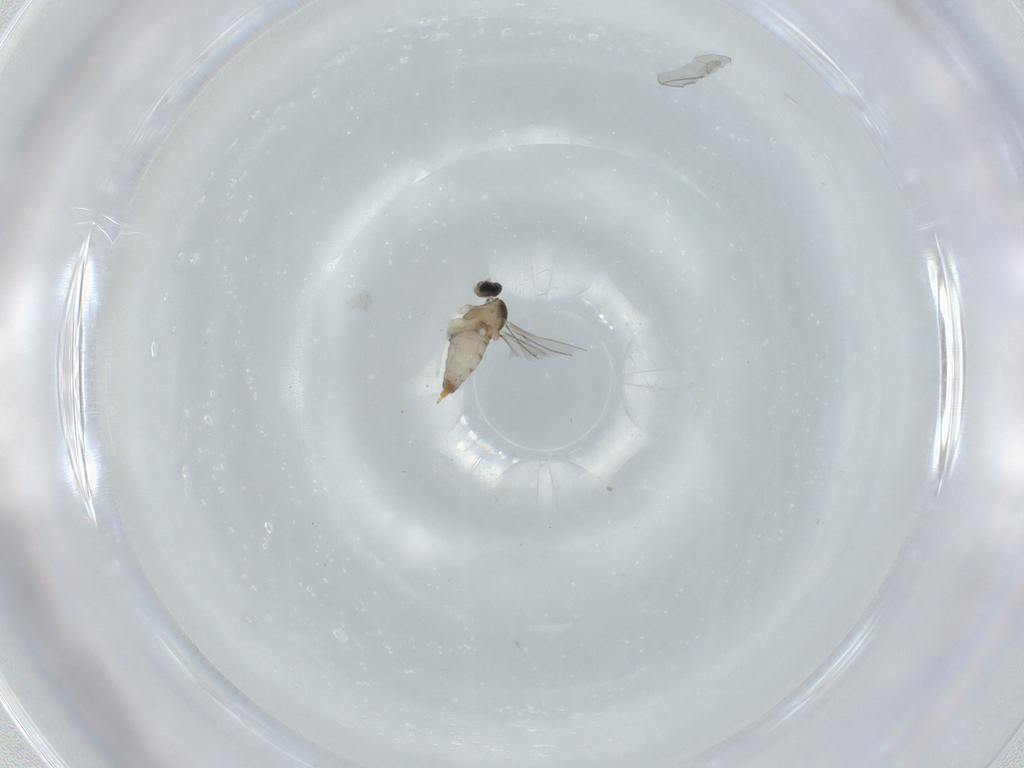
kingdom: Animalia
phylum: Arthropoda
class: Insecta
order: Diptera
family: Cecidomyiidae
